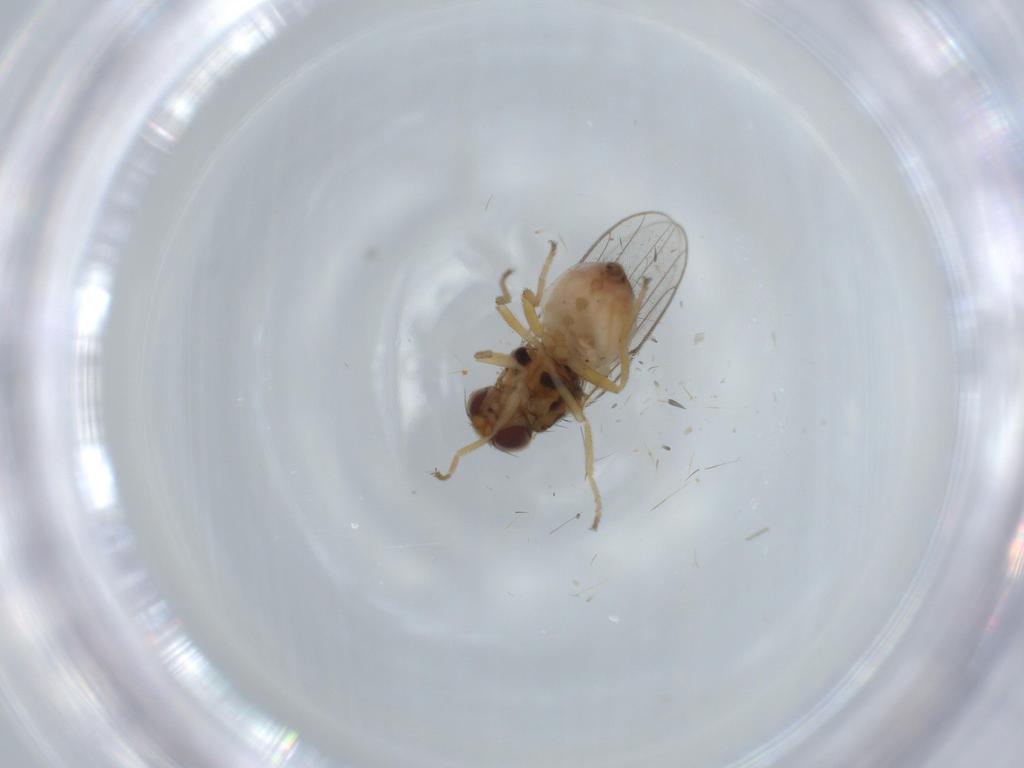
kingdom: Animalia
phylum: Arthropoda
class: Insecta
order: Diptera
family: Chloropidae
